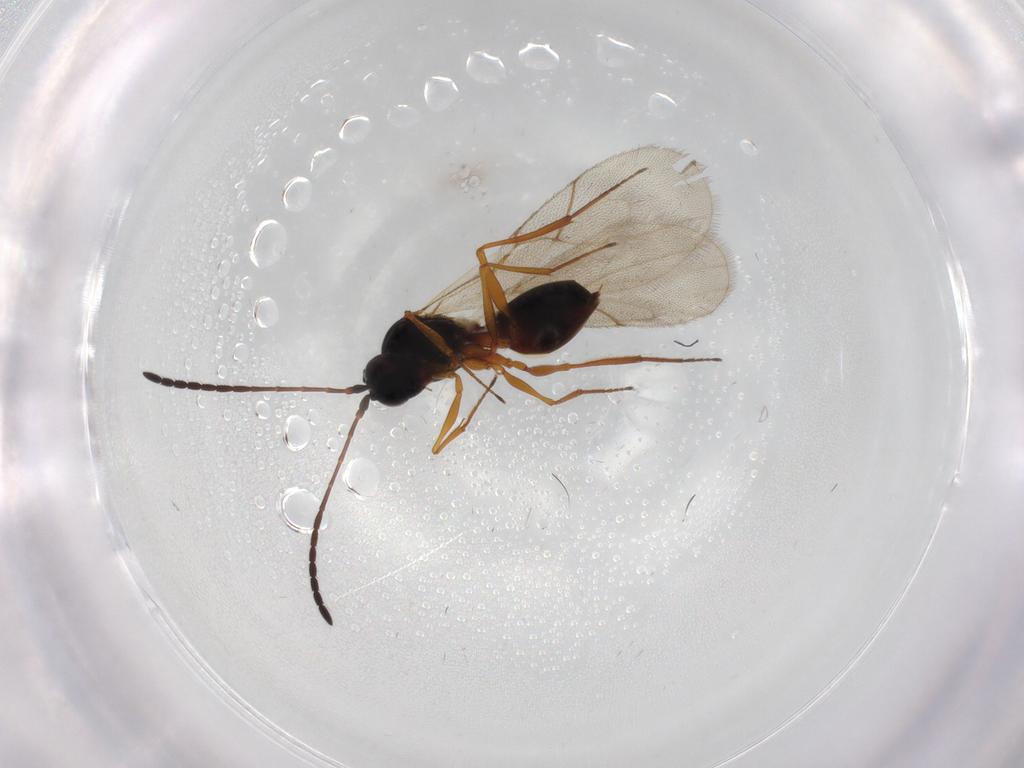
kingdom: Animalia
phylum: Arthropoda
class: Insecta
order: Hymenoptera
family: Figitidae
